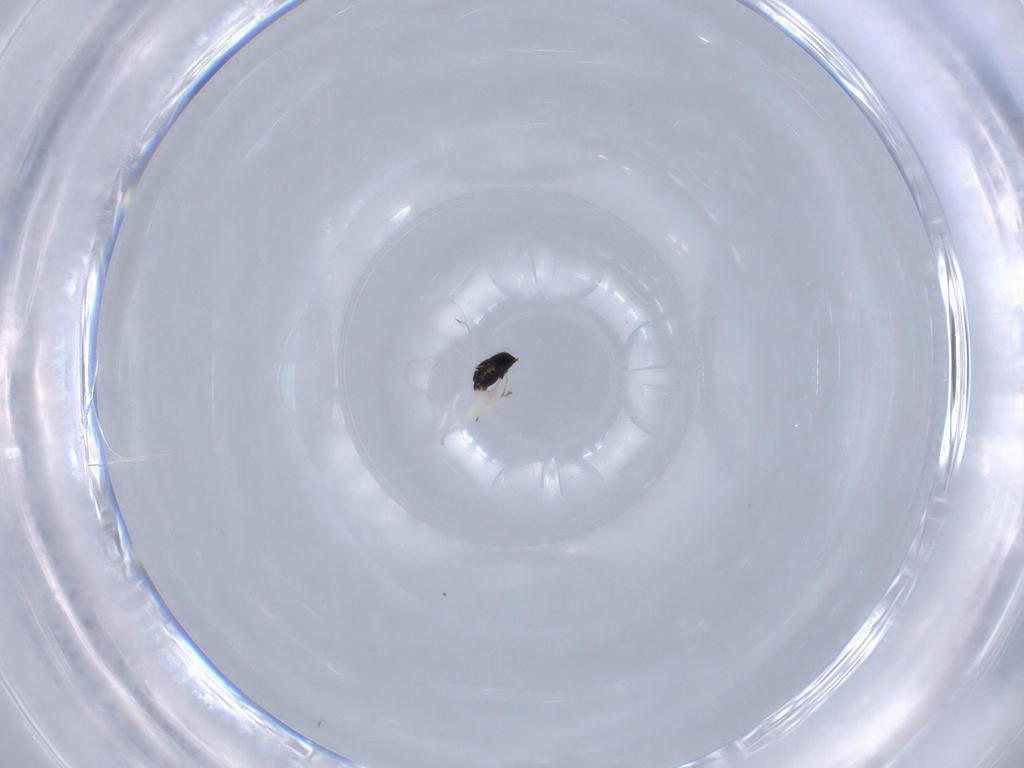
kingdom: Animalia
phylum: Arthropoda
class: Insecta
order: Hymenoptera
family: Eulophidae
